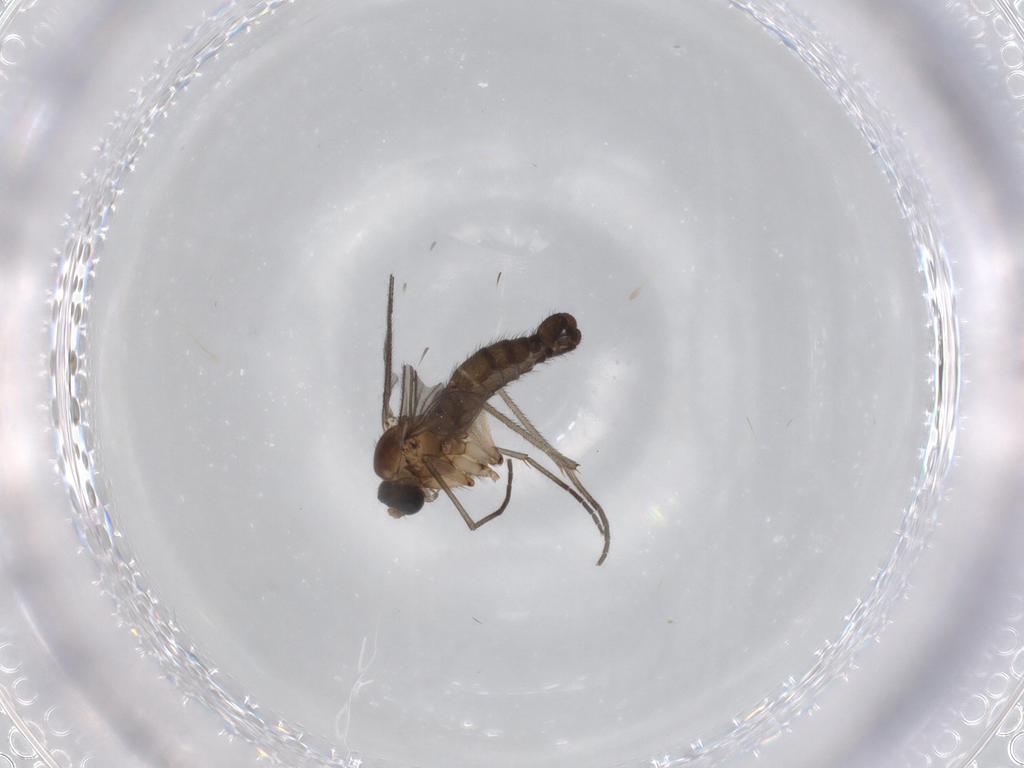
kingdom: Animalia
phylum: Arthropoda
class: Insecta
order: Diptera
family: Sciaridae
